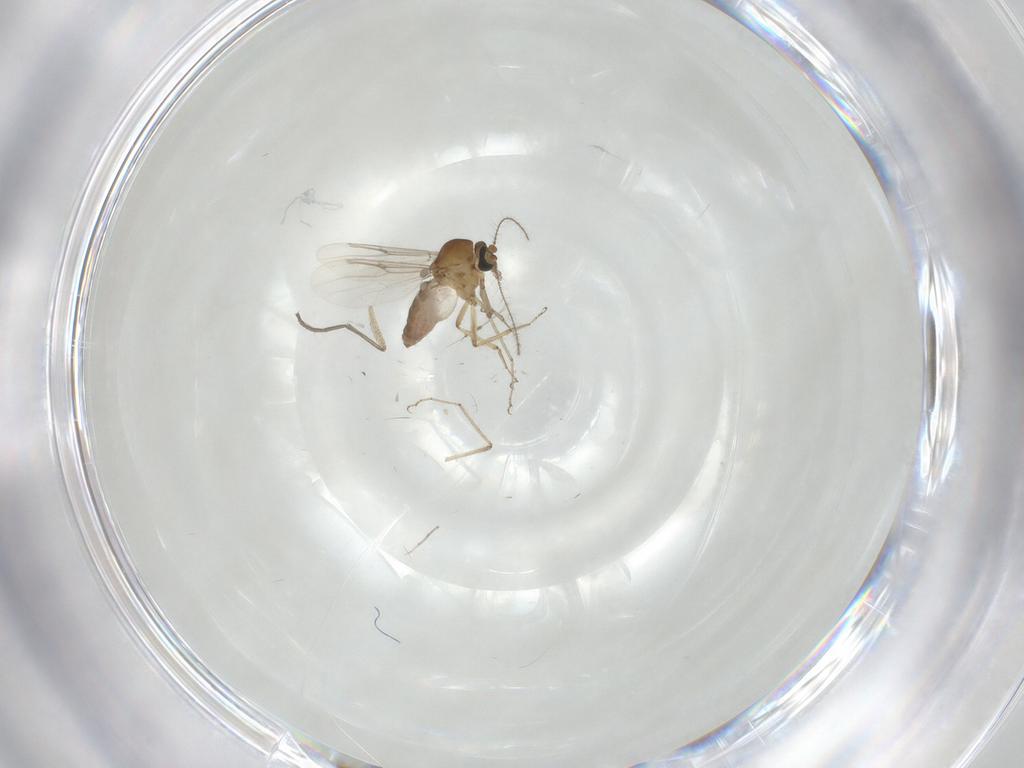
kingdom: Animalia
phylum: Arthropoda
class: Insecta
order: Diptera
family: Sciaridae
